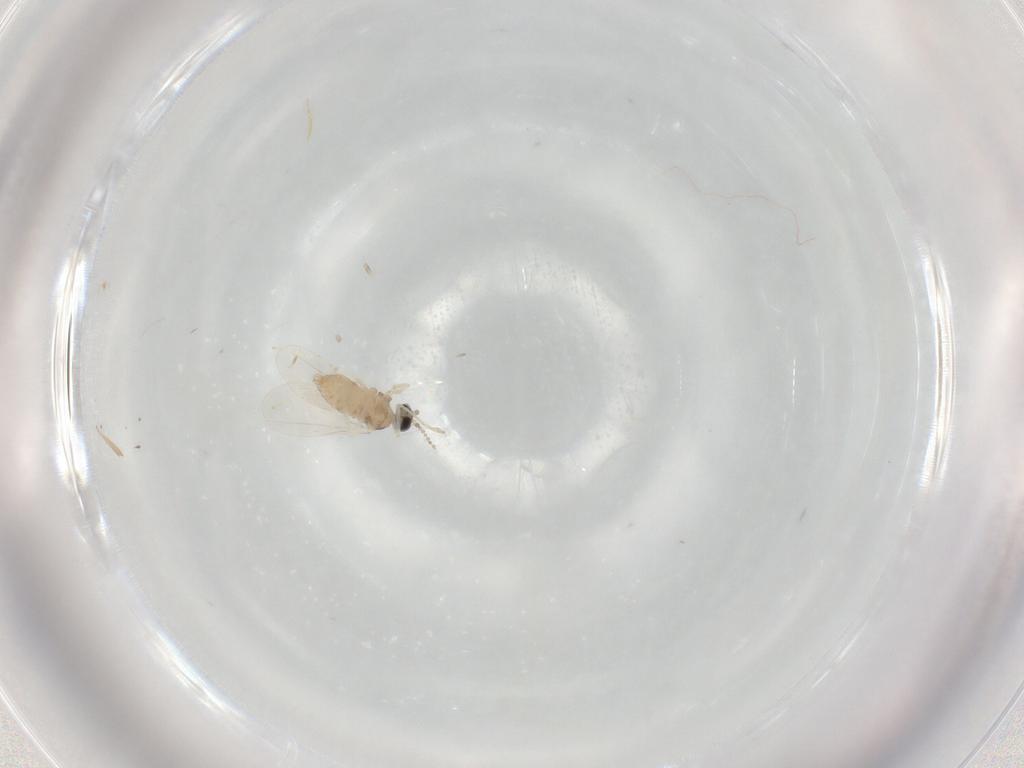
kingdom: Animalia
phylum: Arthropoda
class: Insecta
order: Diptera
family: Cecidomyiidae
